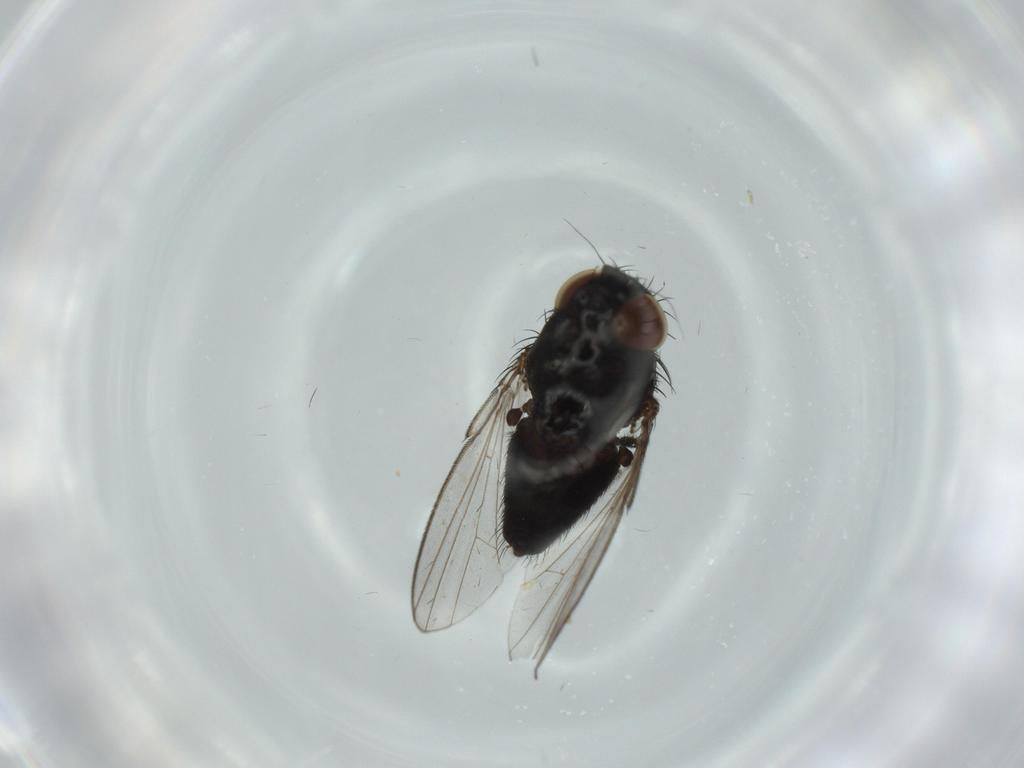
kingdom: Animalia
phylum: Arthropoda
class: Insecta
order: Diptera
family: Milichiidae
